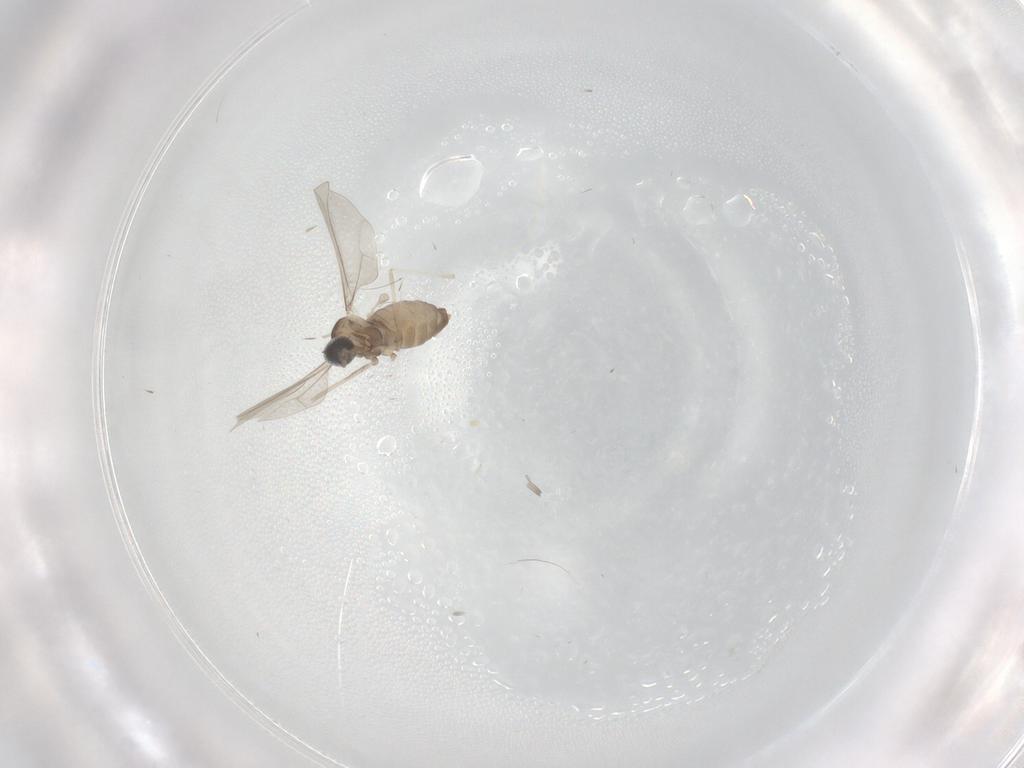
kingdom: Animalia
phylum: Arthropoda
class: Insecta
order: Diptera
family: Cecidomyiidae
